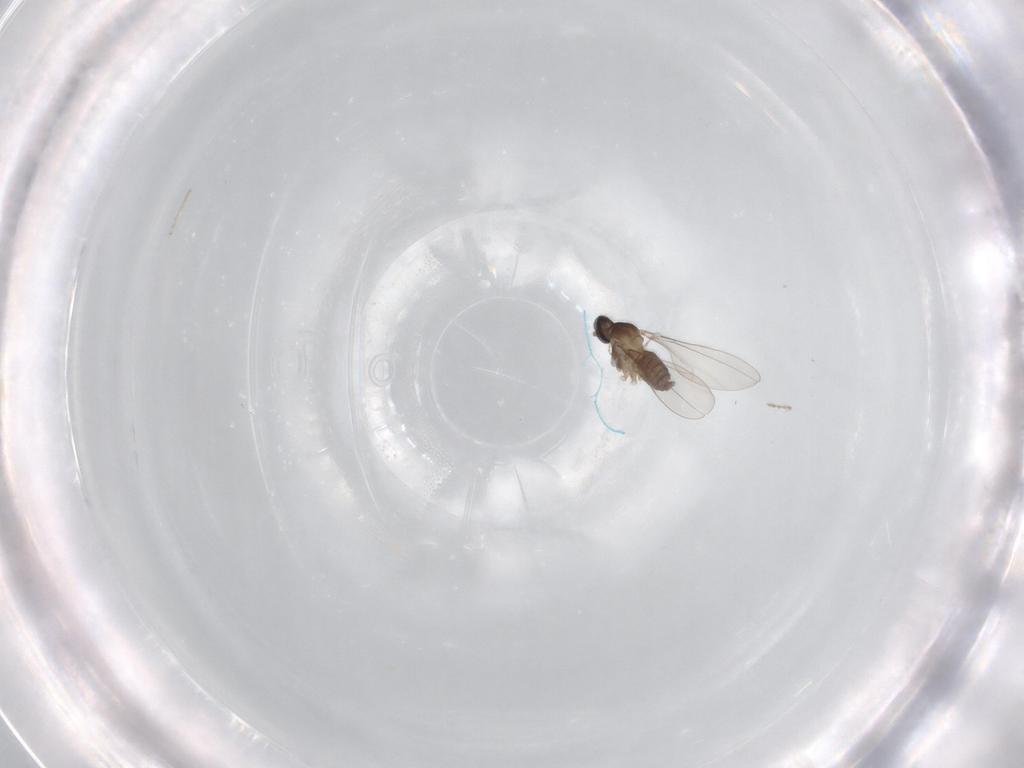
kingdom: Animalia
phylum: Arthropoda
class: Insecta
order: Diptera
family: Cecidomyiidae
